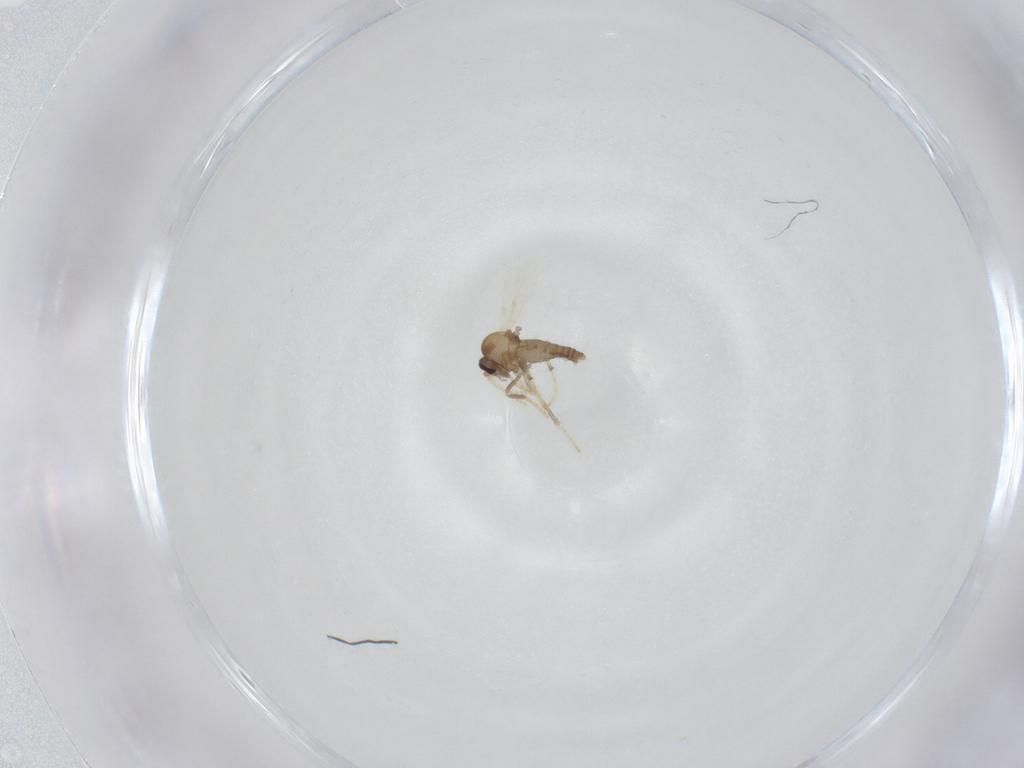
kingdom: Animalia
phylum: Arthropoda
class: Insecta
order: Diptera
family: Ceratopogonidae
